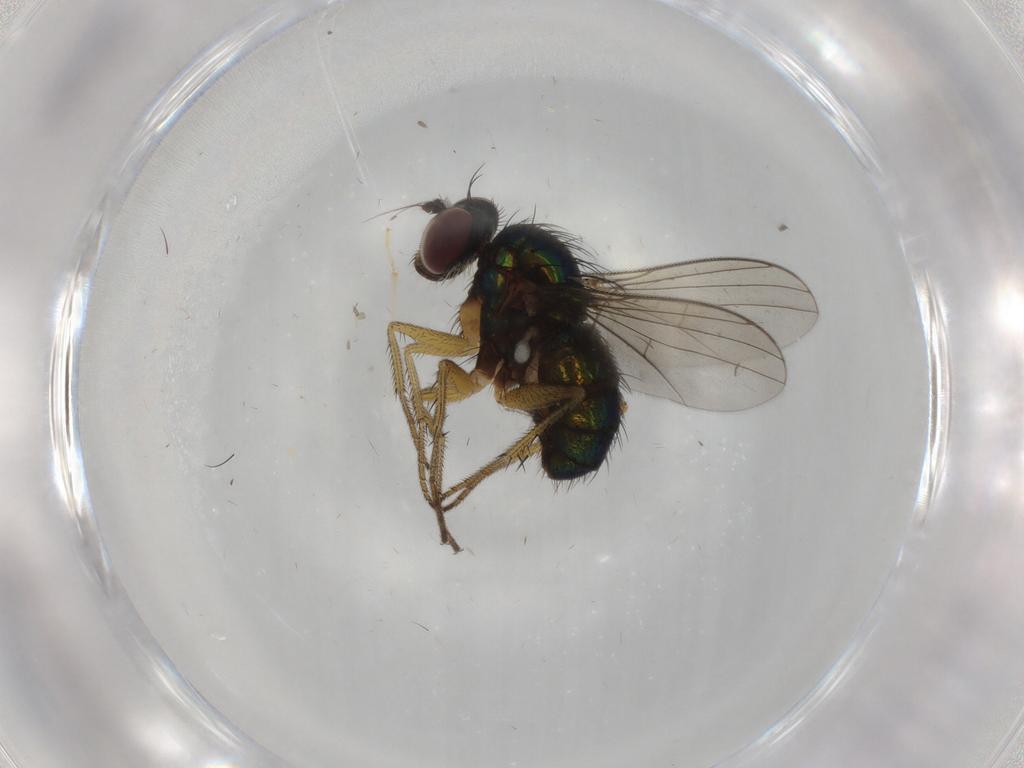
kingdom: Animalia
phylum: Arthropoda
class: Insecta
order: Diptera
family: Dolichopodidae
